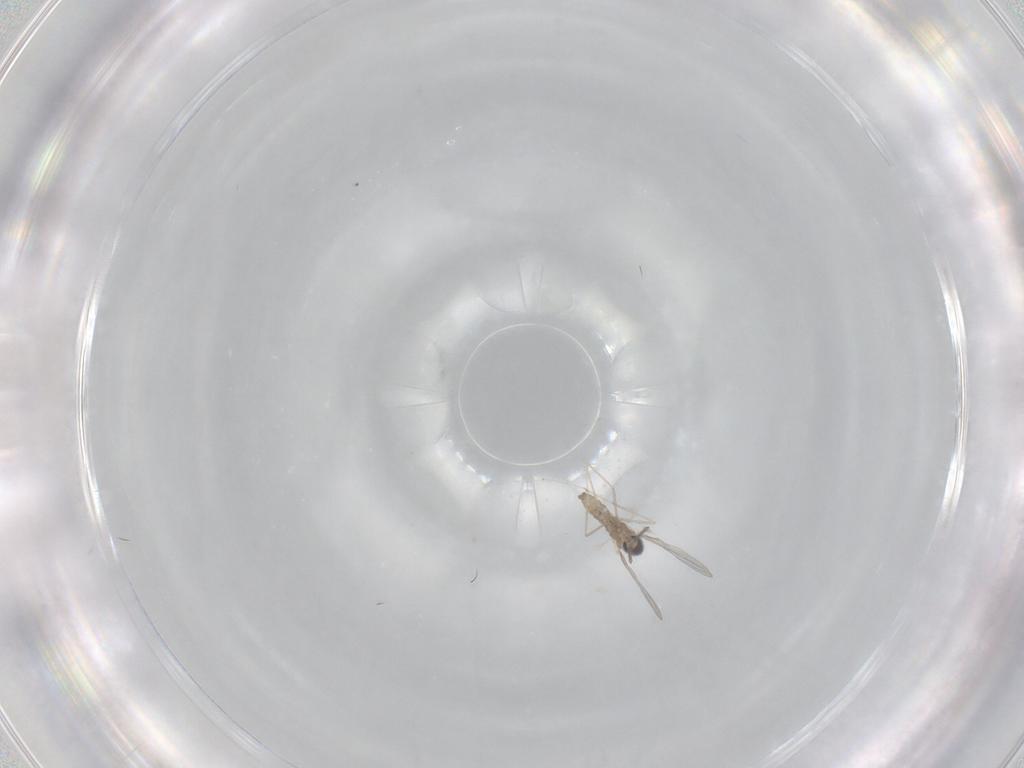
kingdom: Animalia
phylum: Arthropoda
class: Insecta
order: Diptera
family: Cecidomyiidae
